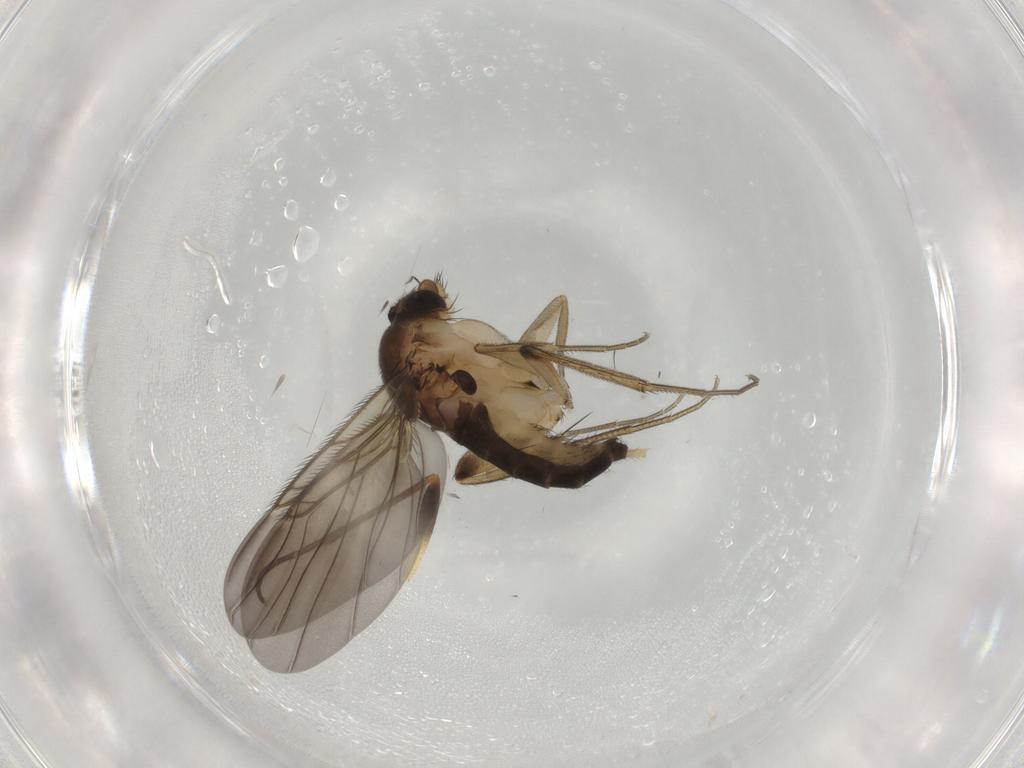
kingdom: Animalia
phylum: Arthropoda
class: Insecta
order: Diptera
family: Phoridae
